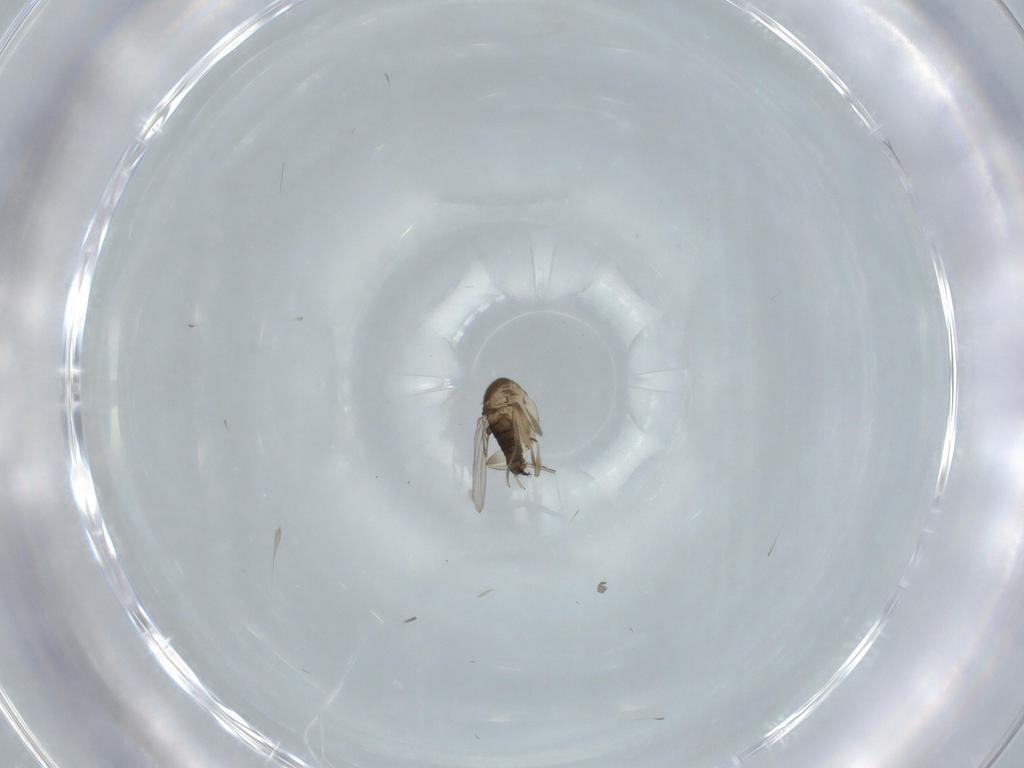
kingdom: Animalia
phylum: Arthropoda
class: Insecta
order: Diptera
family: Phoridae
